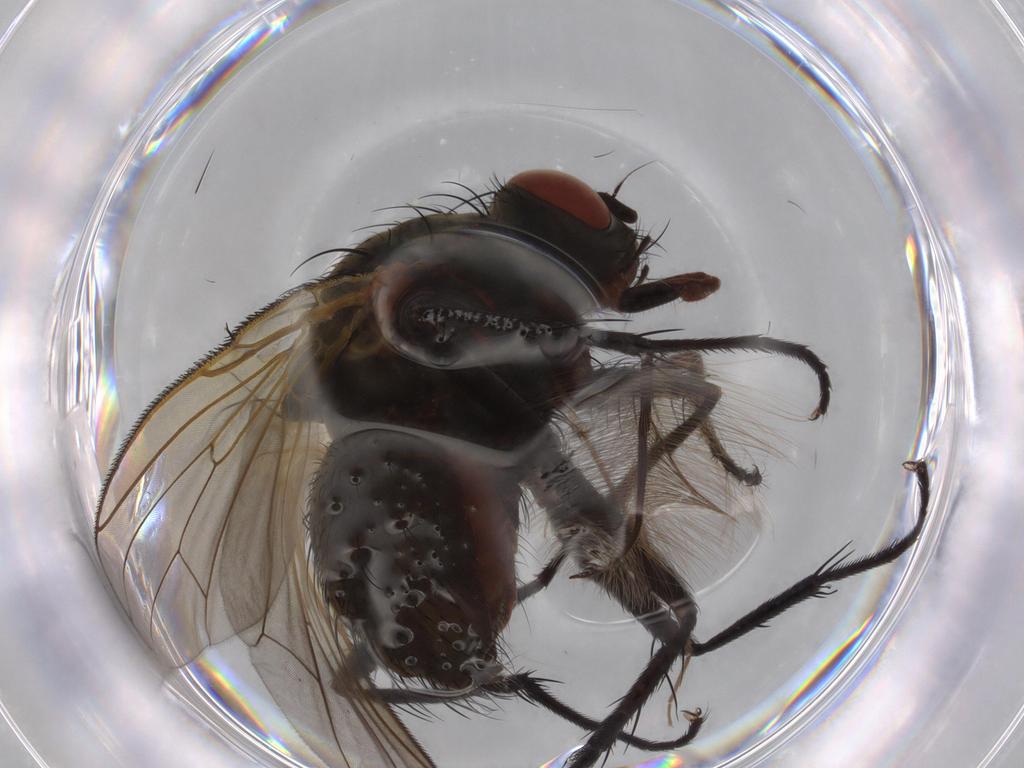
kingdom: Animalia
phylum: Arthropoda
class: Insecta
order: Diptera
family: Anthomyiidae
